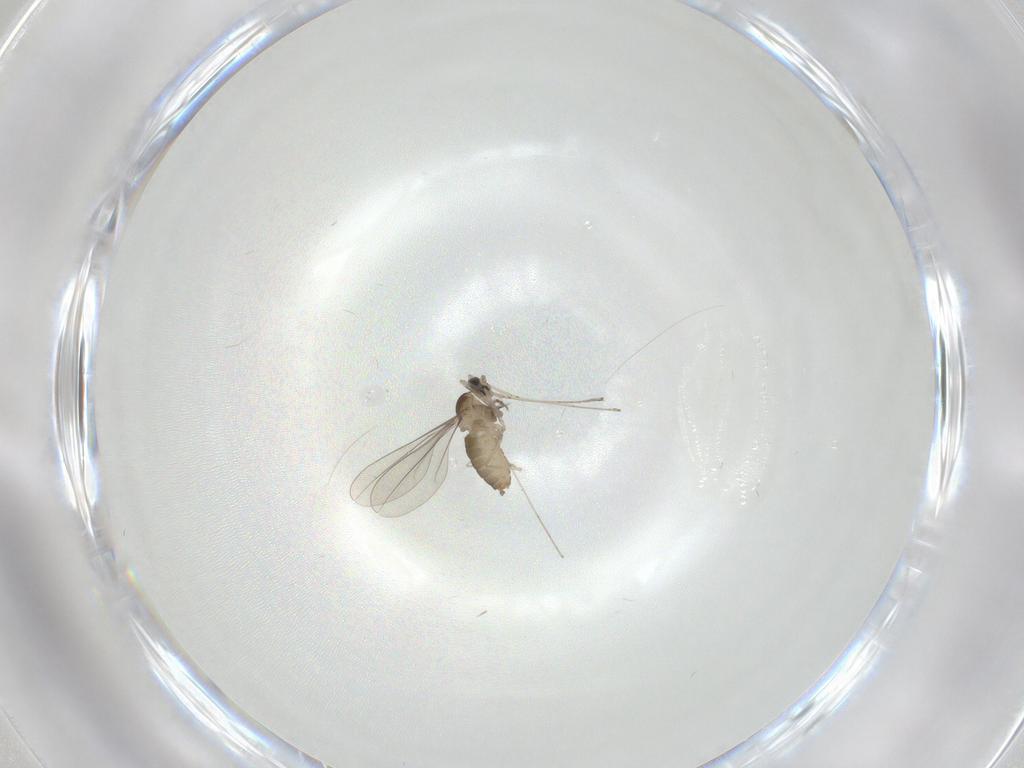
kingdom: Animalia
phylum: Arthropoda
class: Insecta
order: Diptera
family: Cecidomyiidae
